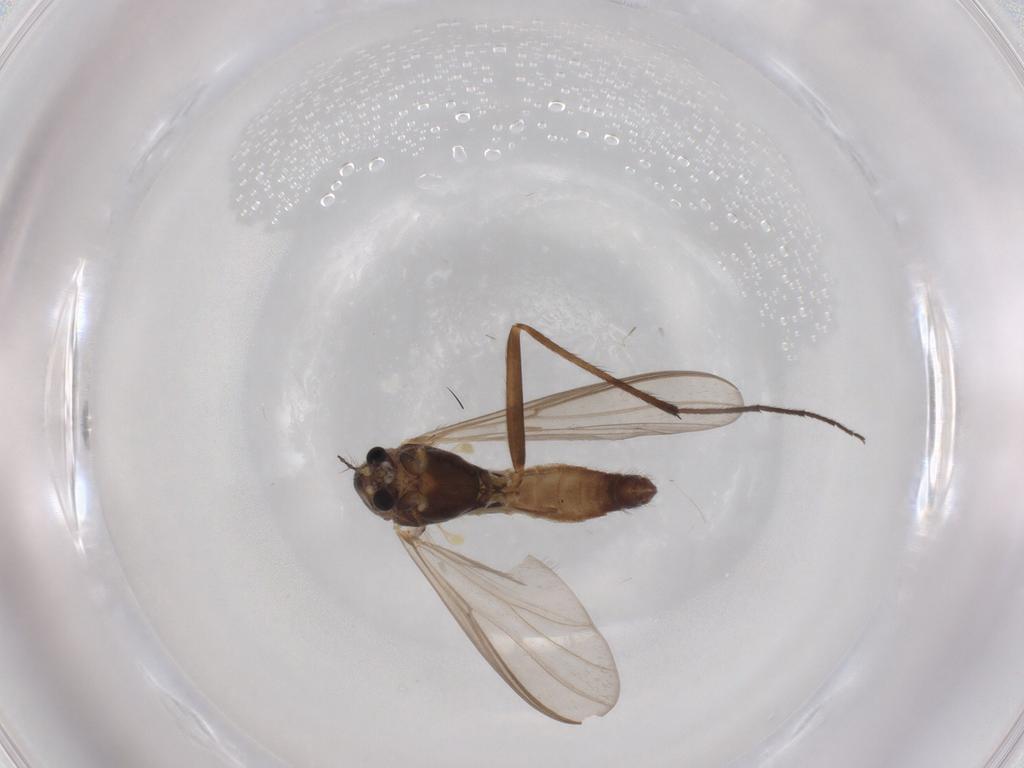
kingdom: Animalia
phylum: Arthropoda
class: Insecta
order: Diptera
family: Chironomidae
